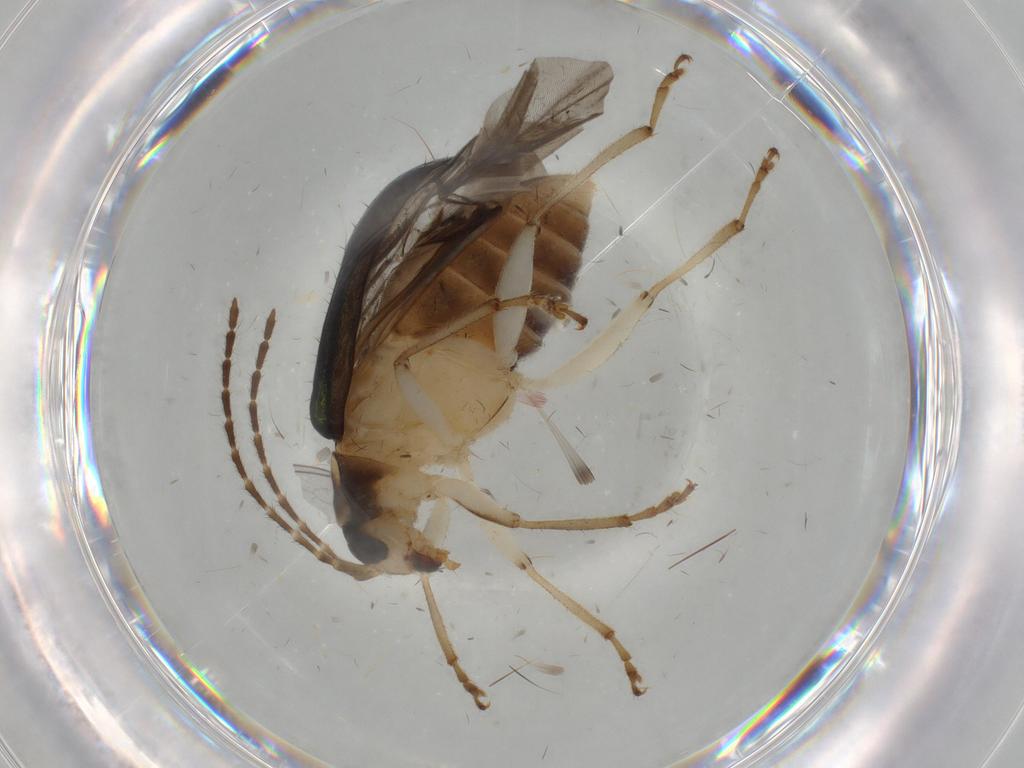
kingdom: Animalia
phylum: Arthropoda
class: Insecta
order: Coleoptera
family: Chrysomelidae
